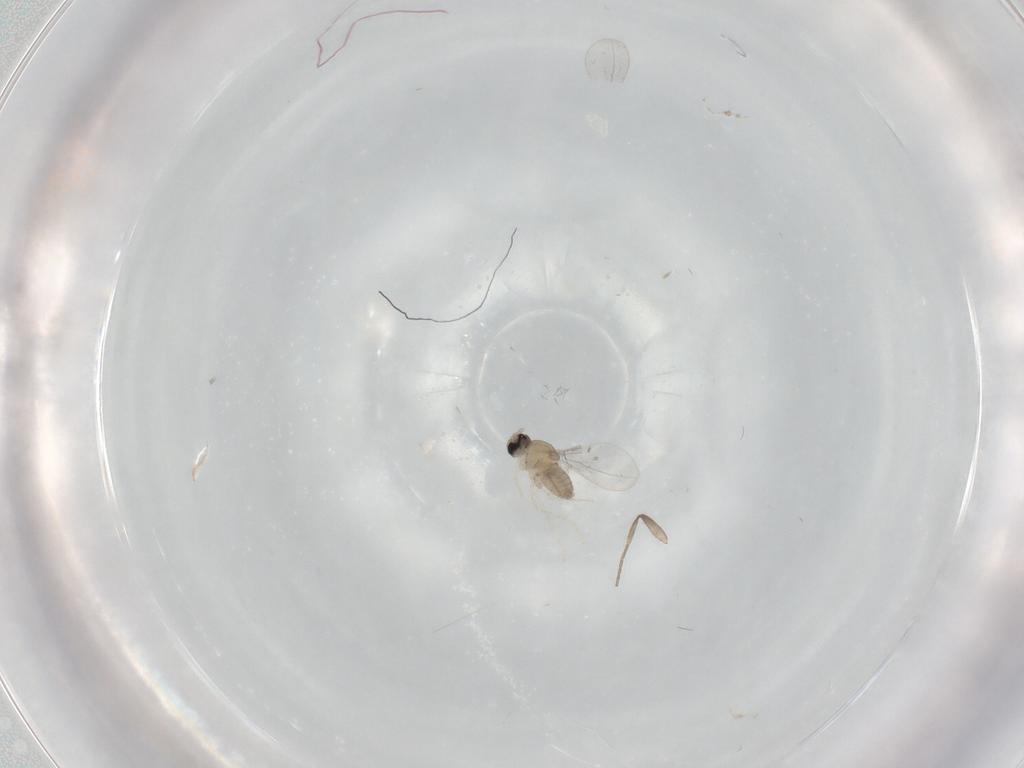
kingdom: Animalia
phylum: Arthropoda
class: Insecta
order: Diptera
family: Cecidomyiidae
